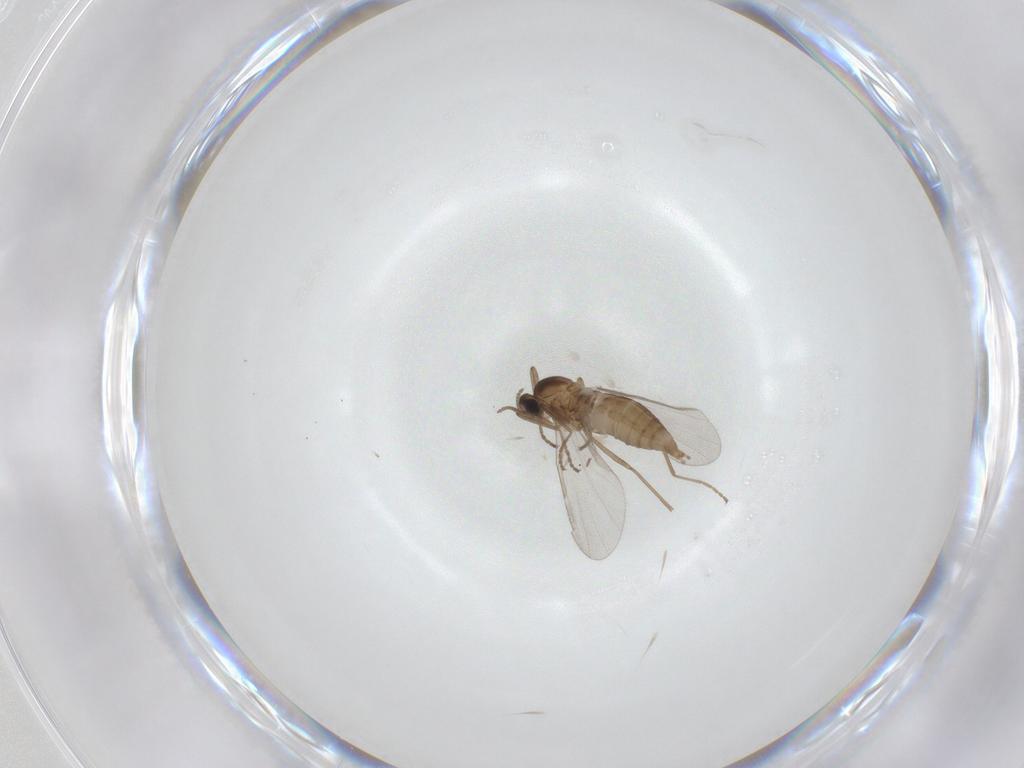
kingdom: Animalia
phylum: Arthropoda
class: Insecta
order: Diptera
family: Cecidomyiidae
